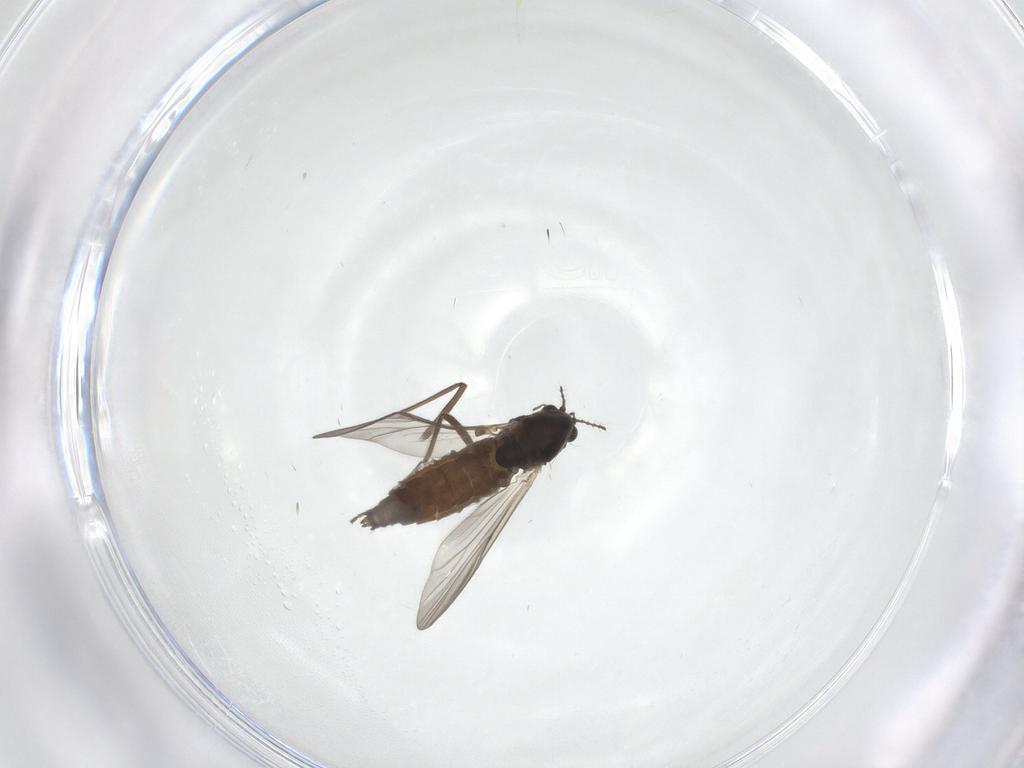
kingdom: Animalia
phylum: Arthropoda
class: Insecta
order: Diptera
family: Chironomidae
